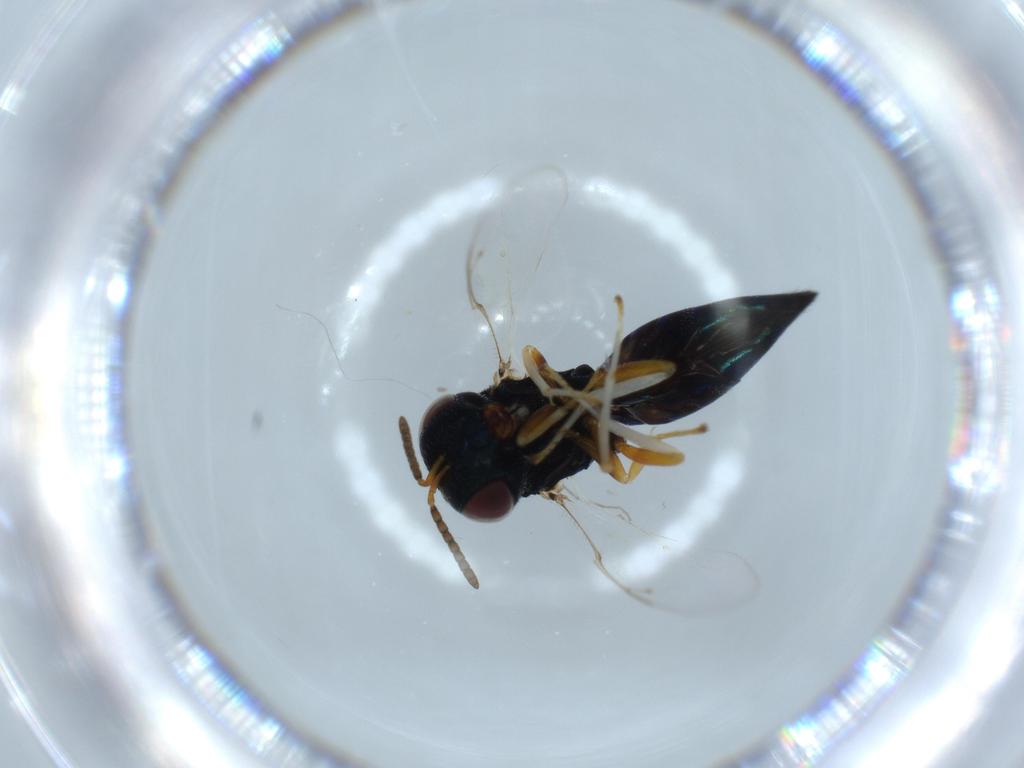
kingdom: Animalia
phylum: Arthropoda
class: Insecta
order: Hymenoptera
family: Pteromalidae
